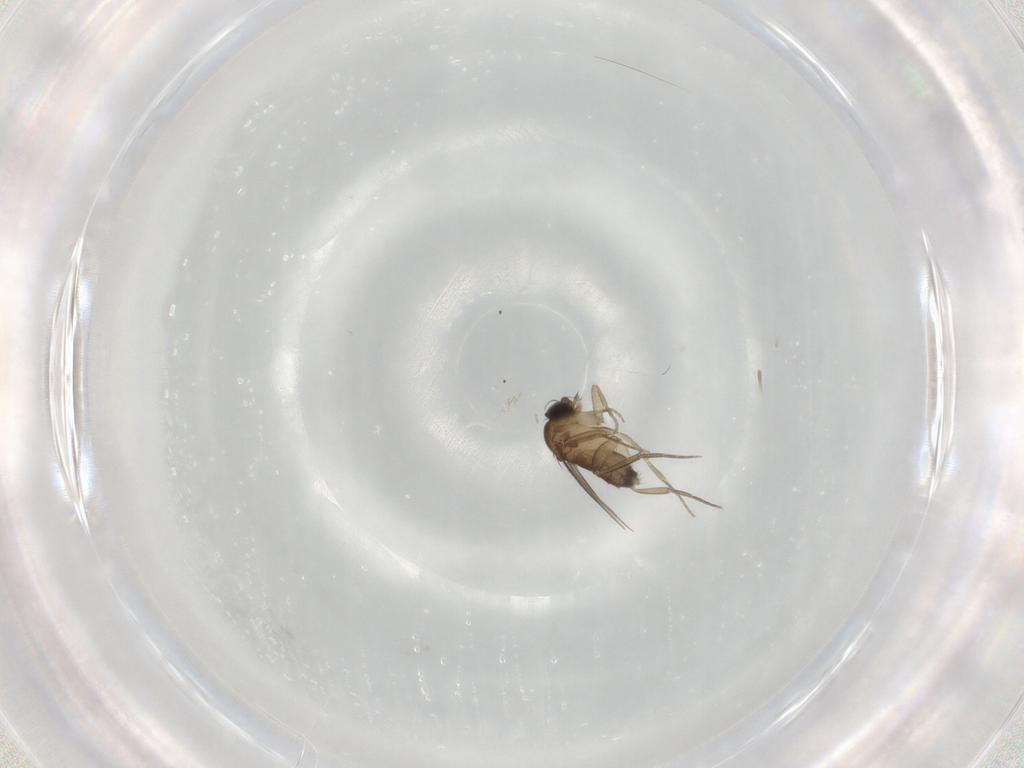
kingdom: Animalia
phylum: Arthropoda
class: Insecta
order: Diptera
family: Phoridae
